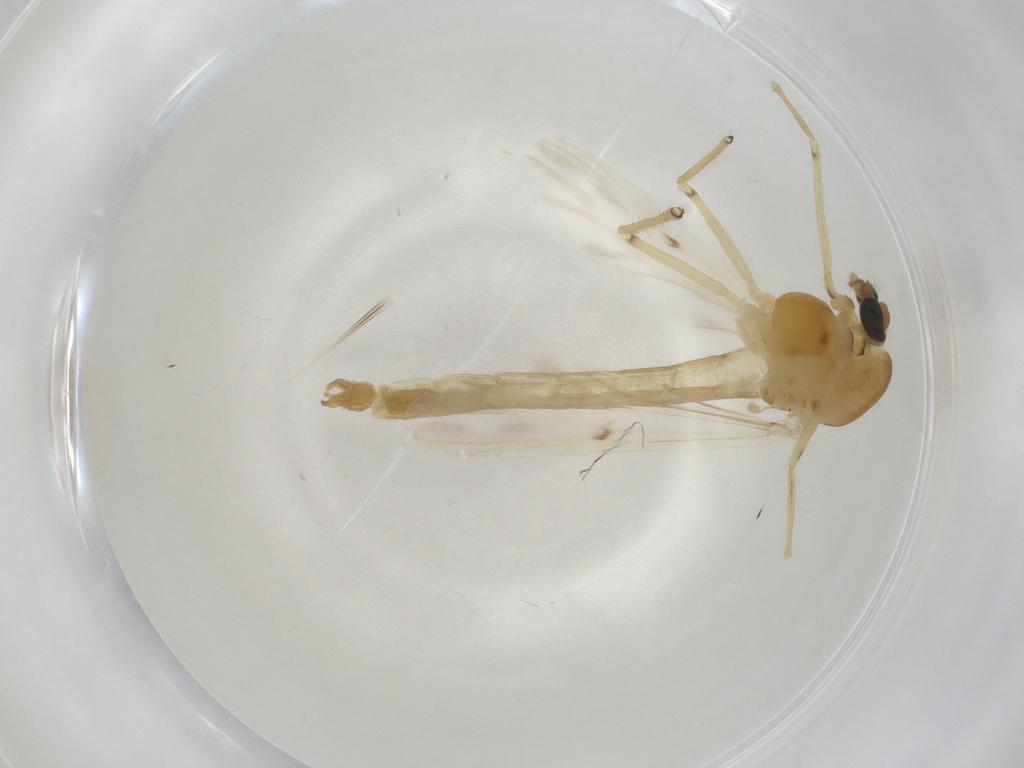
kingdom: Animalia
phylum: Arthropoda
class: Insecta
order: Diptera
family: Chironomidae
